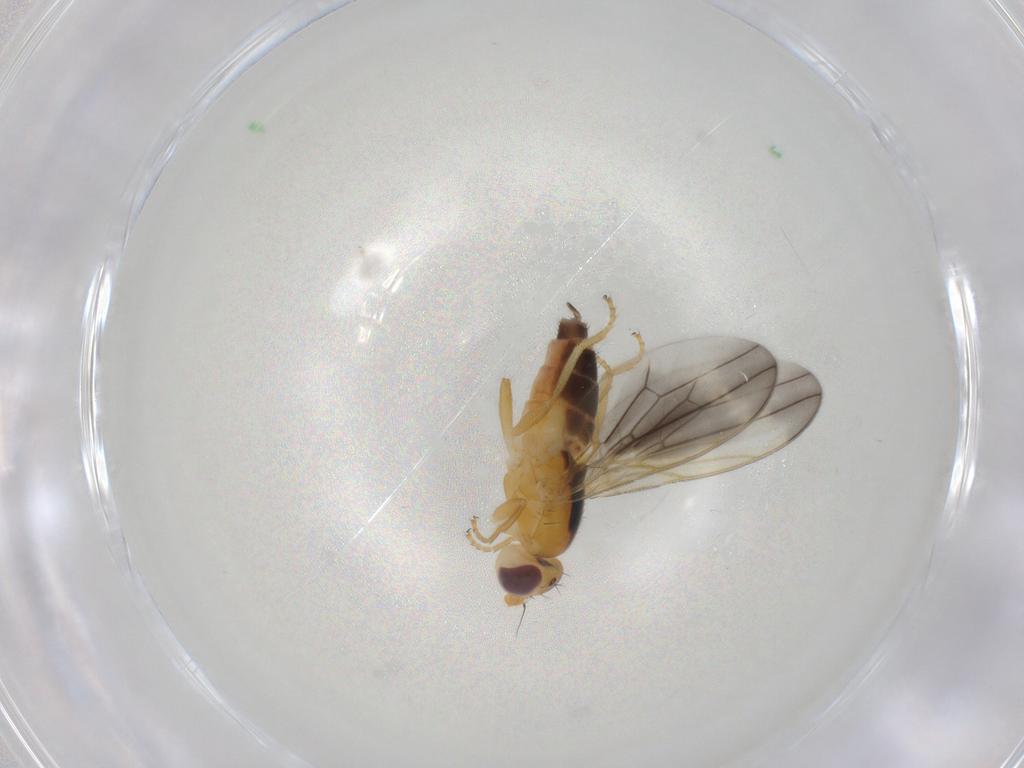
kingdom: Animalia
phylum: Arthropoda
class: Insecta
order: Diptera
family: Neurochaetidae
